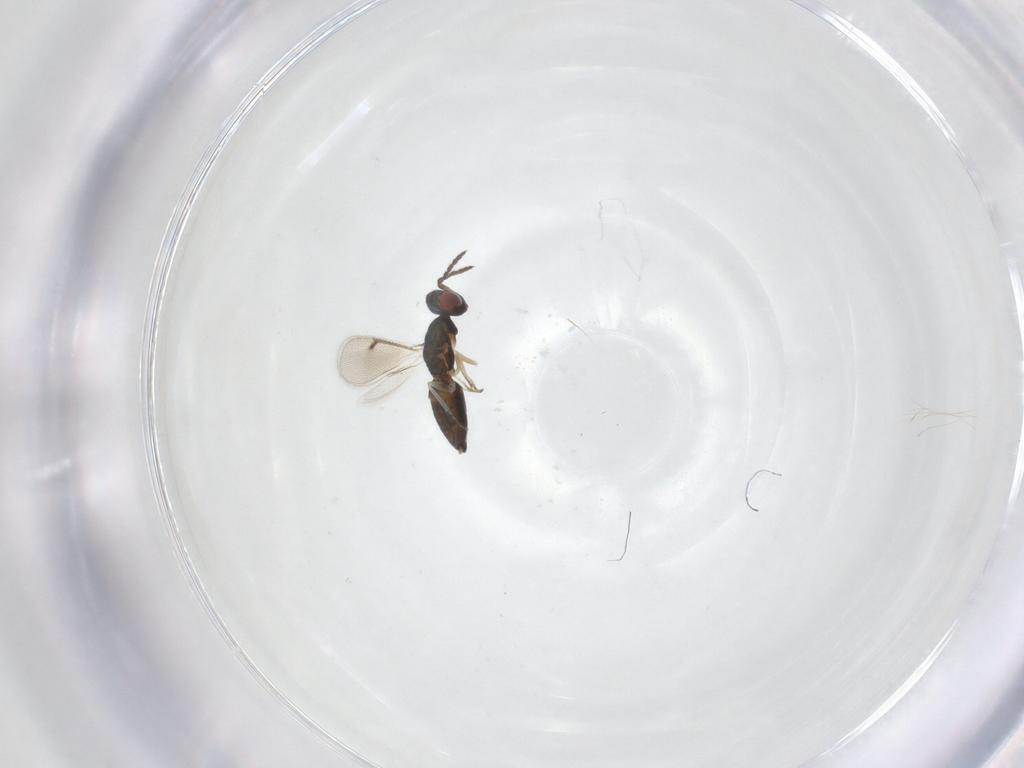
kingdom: Animalia
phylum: Arthropoda
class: Insecta
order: Hymenoptera
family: Eulophidae
